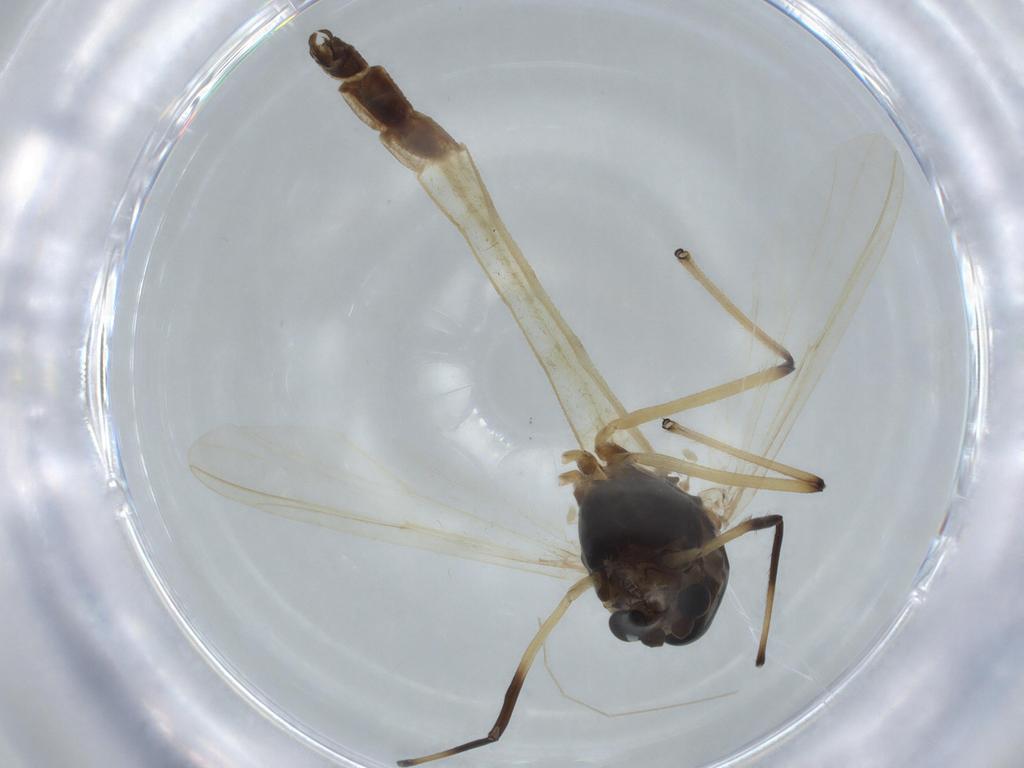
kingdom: Animalia
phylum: Arthropoda
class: Insecta
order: Diptera
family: Chironomidae
